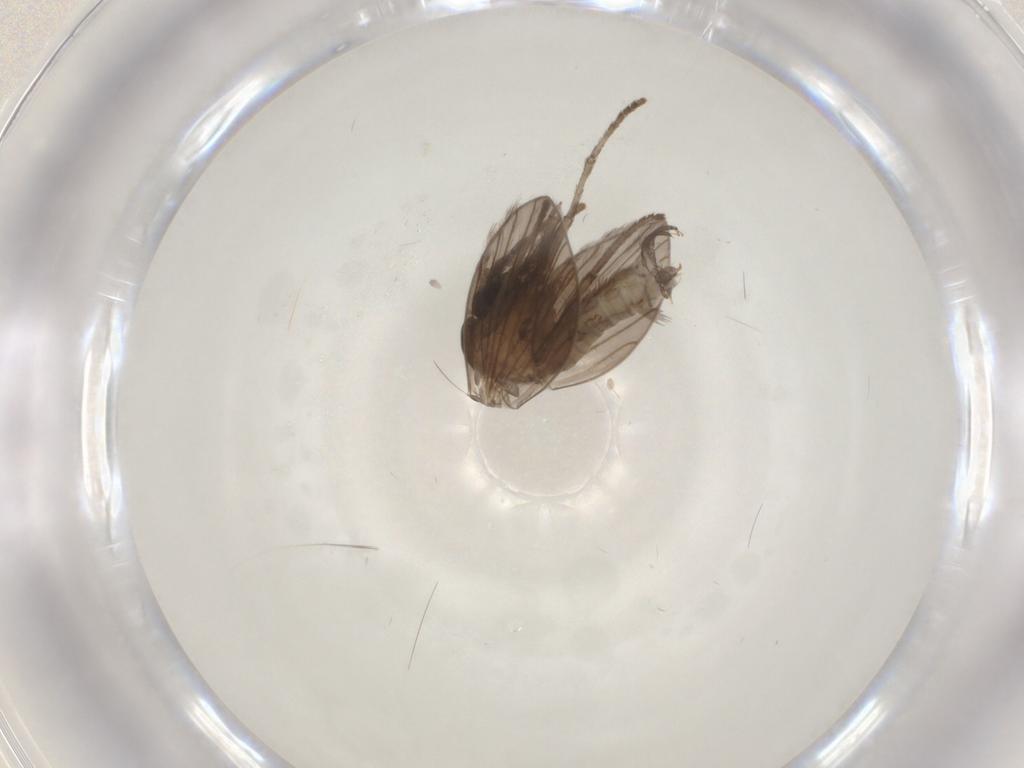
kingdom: Animalia
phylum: Arthropoda
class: Insecta
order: Diptera
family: Psychodidae
